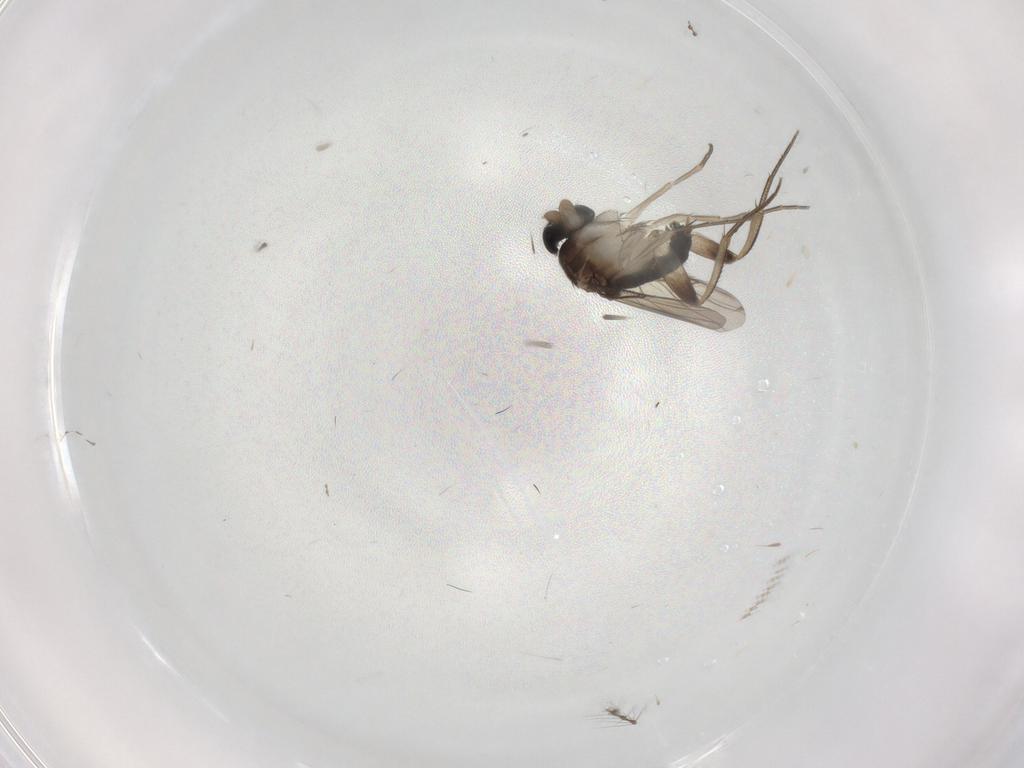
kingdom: Animalia
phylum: Arthropoda
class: Insecta
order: Diptera
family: Phoridae
